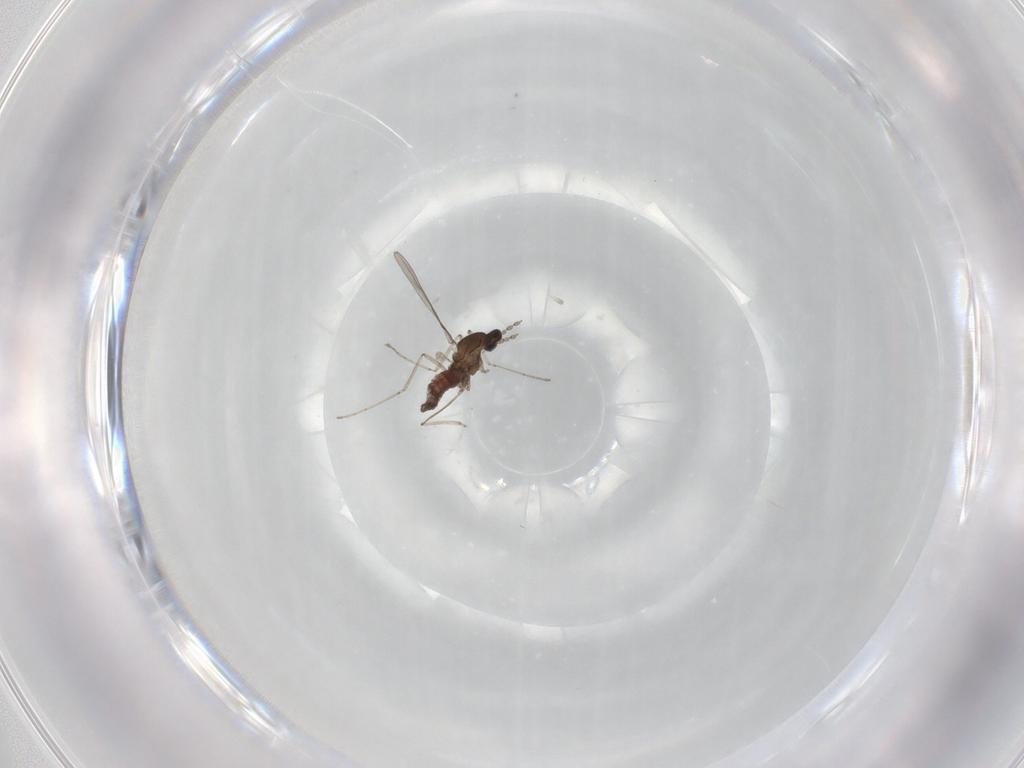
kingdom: Animalia
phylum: Arthropoda
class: Insecta
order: Diptera
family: Cecidomyiidae
